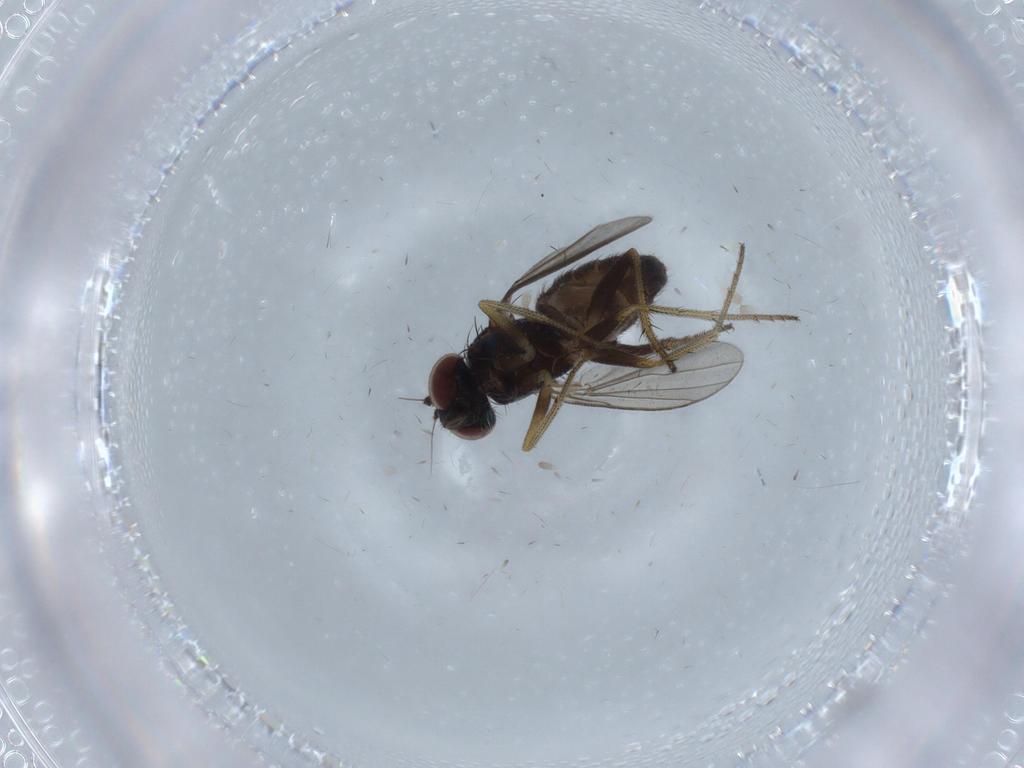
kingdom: Animalia
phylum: Arthropoda
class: Insecta
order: Diptera
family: Chironomidae
